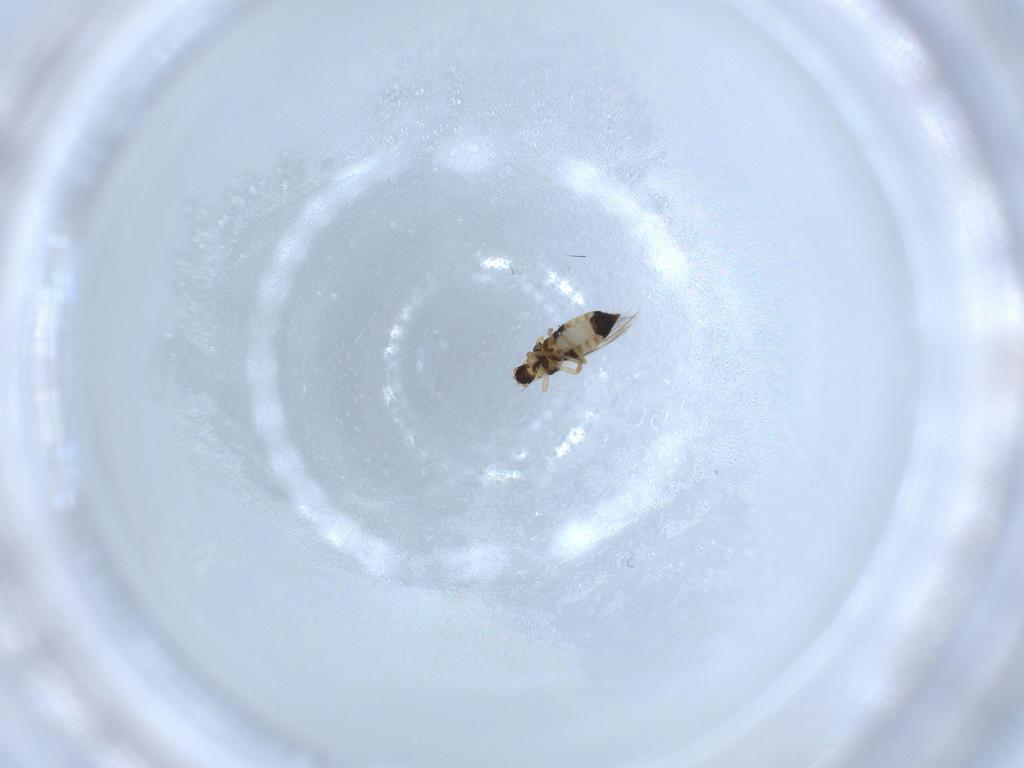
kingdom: Animalia
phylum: Arthropoda
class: Insecta
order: Thysanoptera
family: Thripidae
